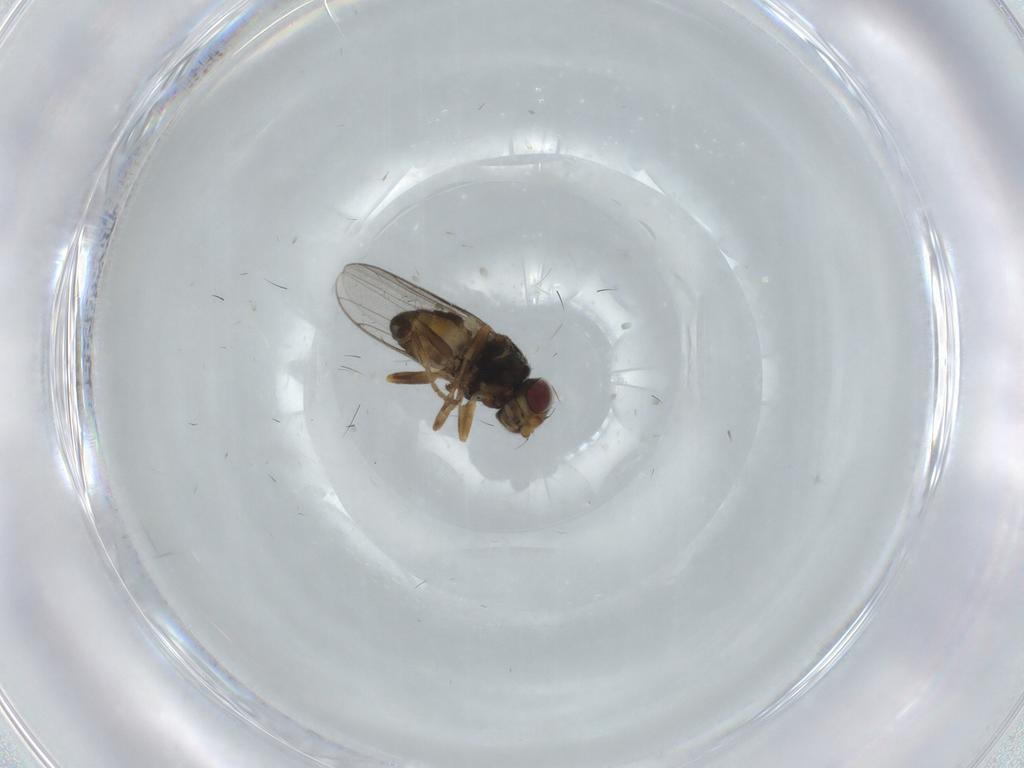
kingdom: Animalia
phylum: Arthropoda
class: Insecta
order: Diptera
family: Chloropidae
